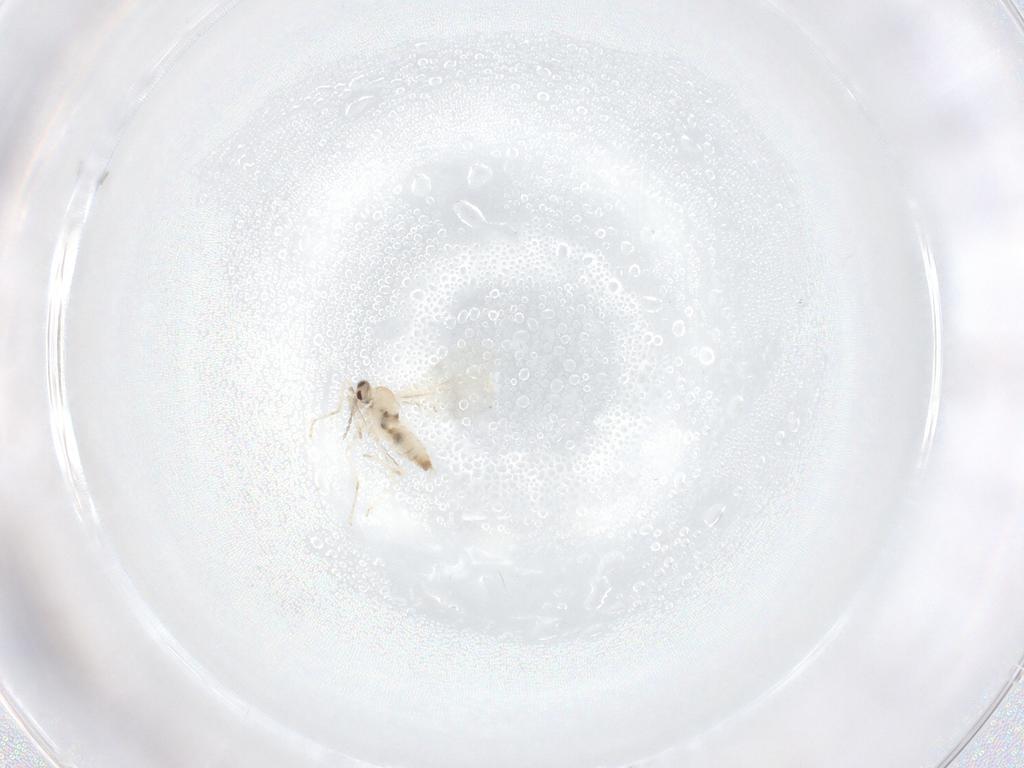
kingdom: Animalia
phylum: Arthropoda
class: Insecta
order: Diptera
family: Cecidomyiidae
